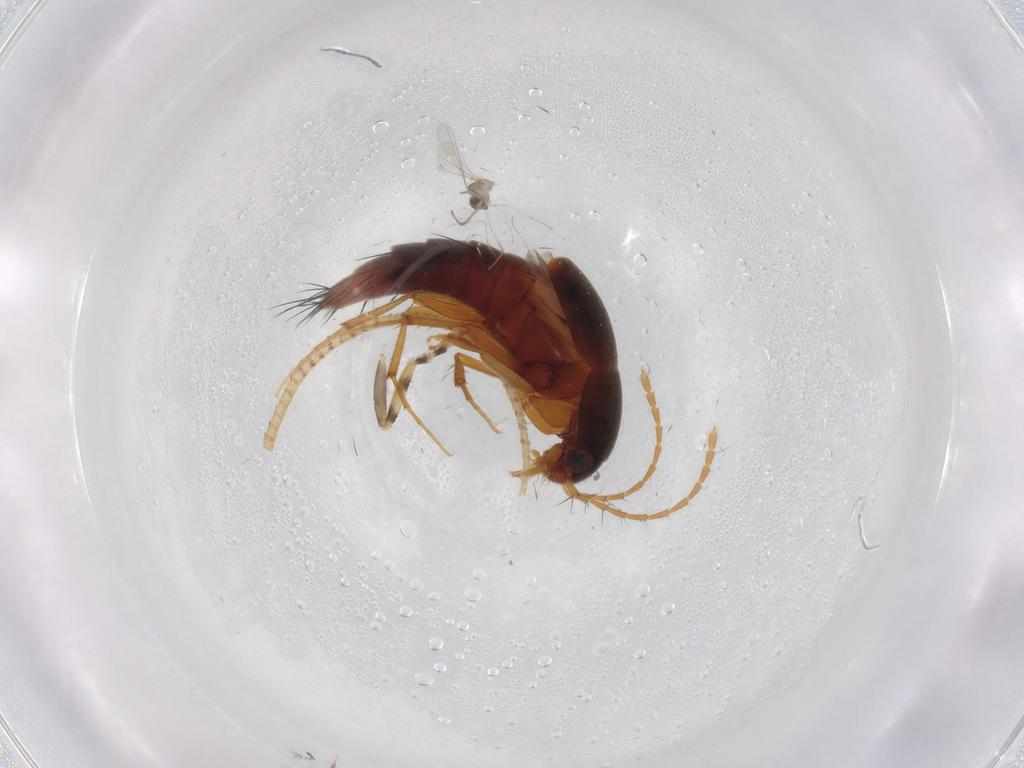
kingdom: Animalia
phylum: Arthropoda
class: Insecta
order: Coleoptera
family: Staphylinidae
